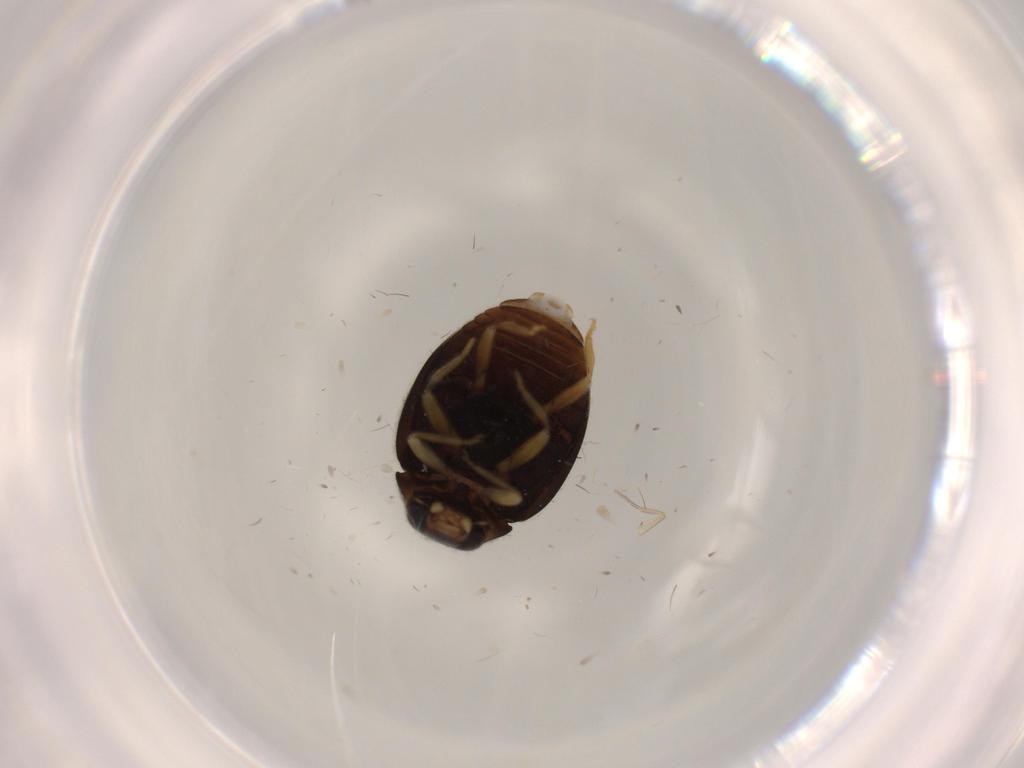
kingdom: Animalia
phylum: Arthropoda
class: Insecta
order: Coleoptera
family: Coccinellidae
